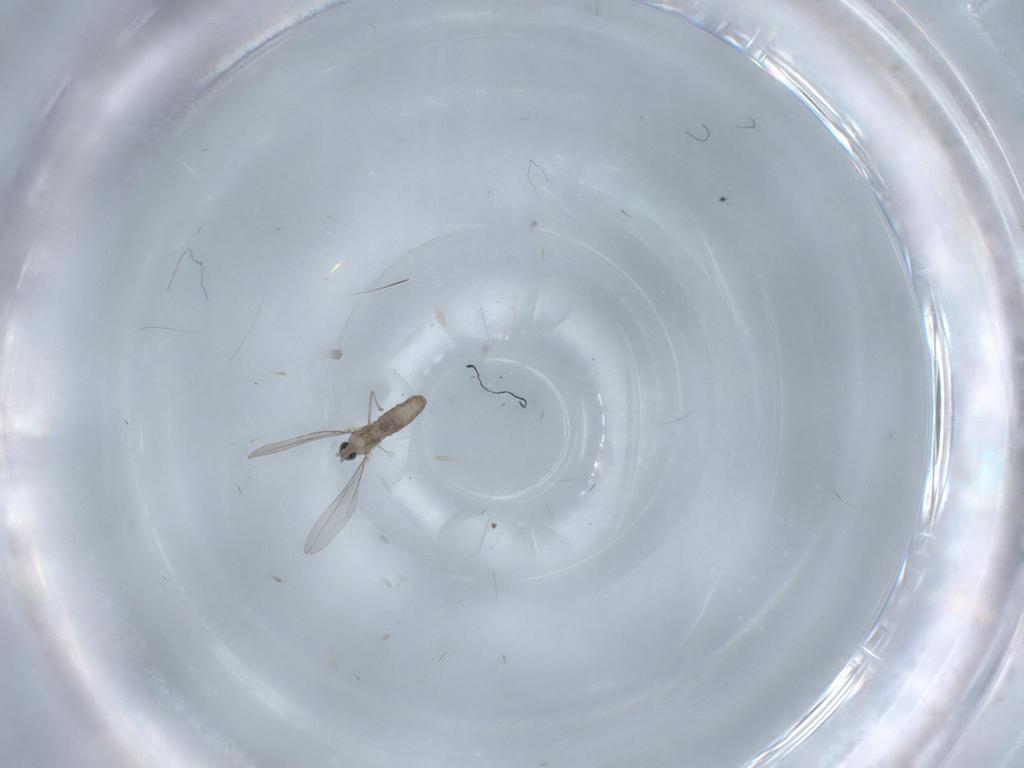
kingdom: Animalia
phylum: Arthropoda
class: Insecta
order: Diptera
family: Cecidomyiidae
